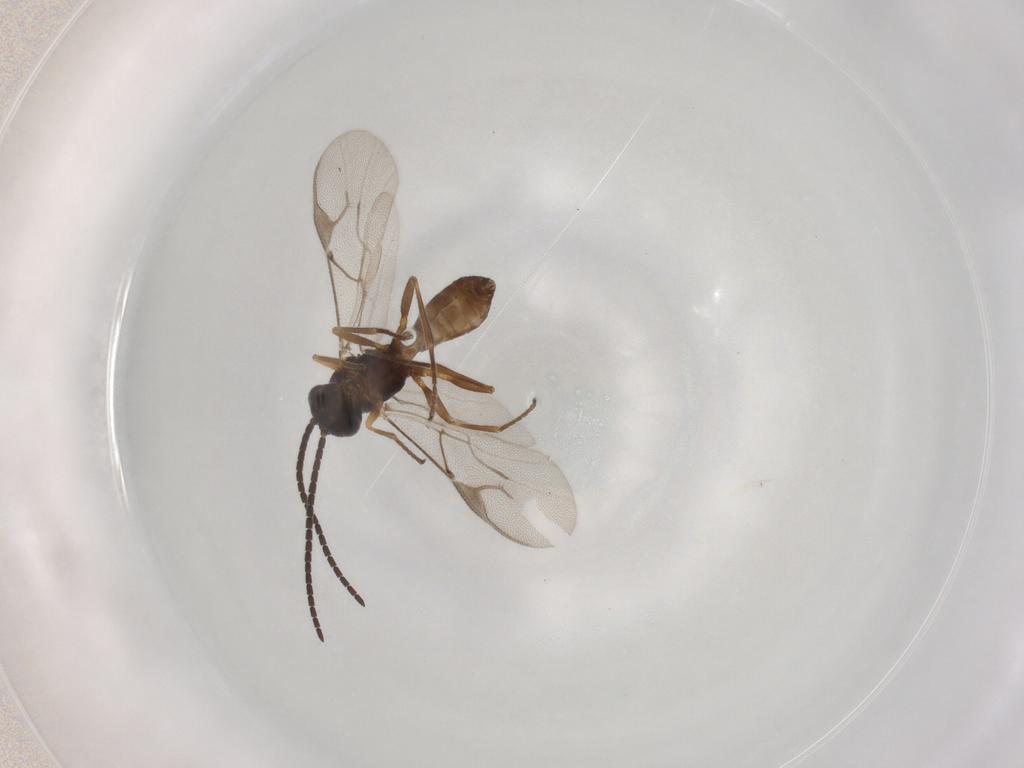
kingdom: Animalia
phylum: Arthropoda
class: Insecta
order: Hymenoptera
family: Braconidae
